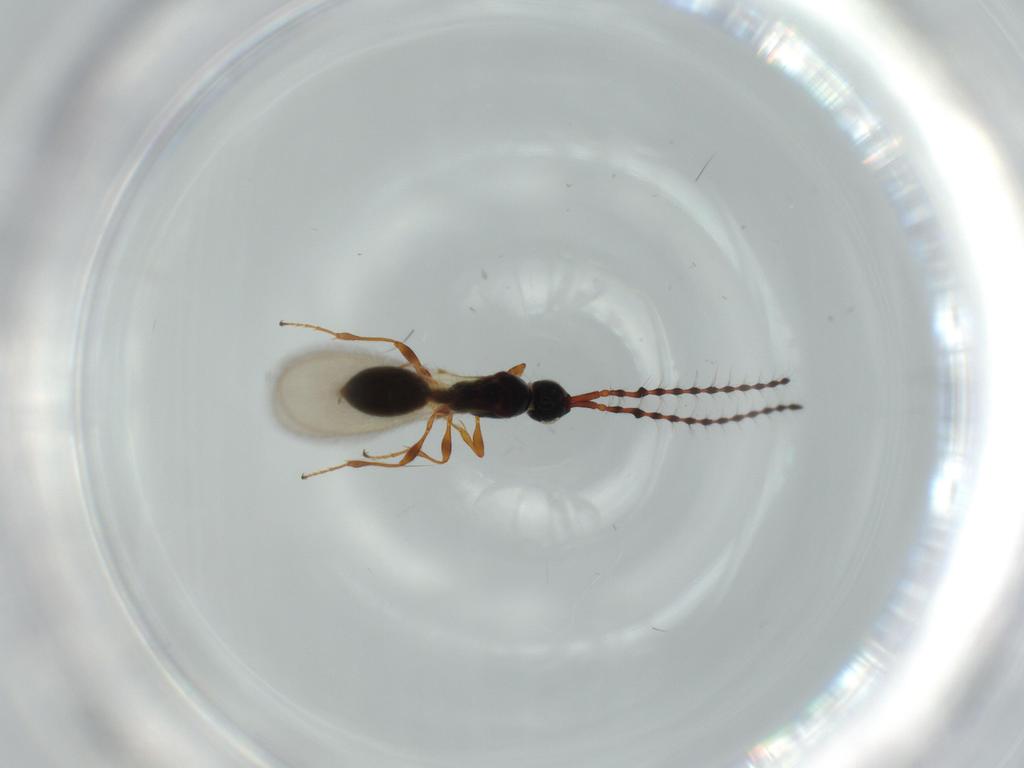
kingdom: Animalia
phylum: Arthropoda
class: Insecta
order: Hymenoptera
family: Diapriidae
